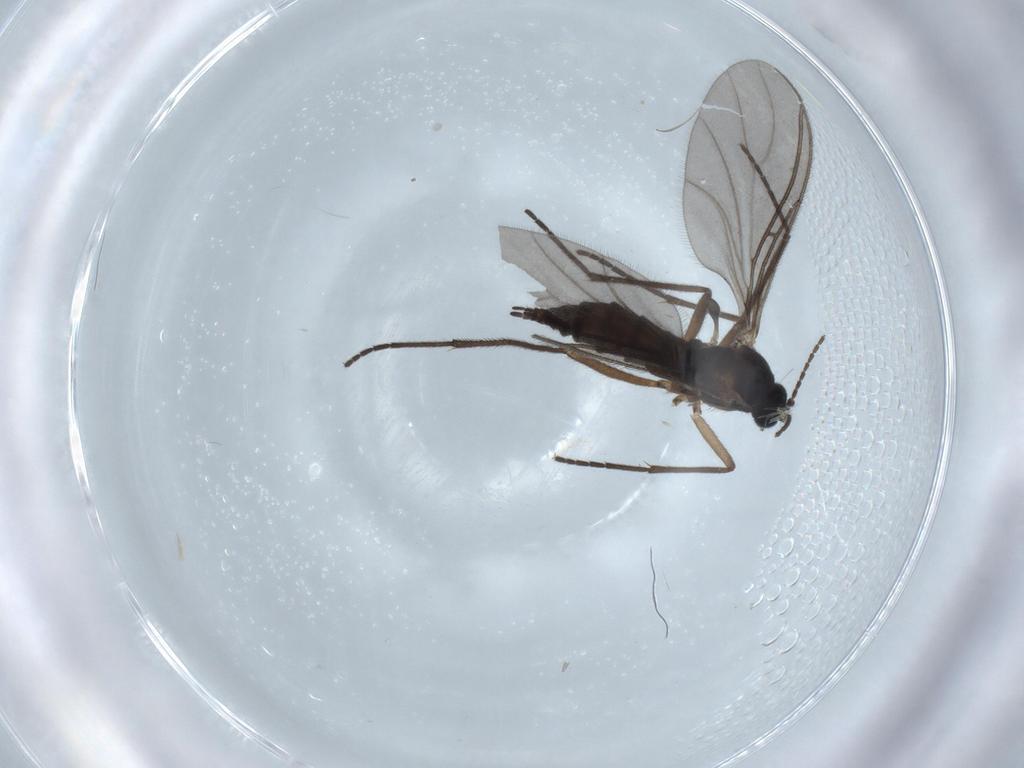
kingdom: Animalia
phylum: Arthropoda
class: Insecta
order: Diptera
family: Sciaridae
